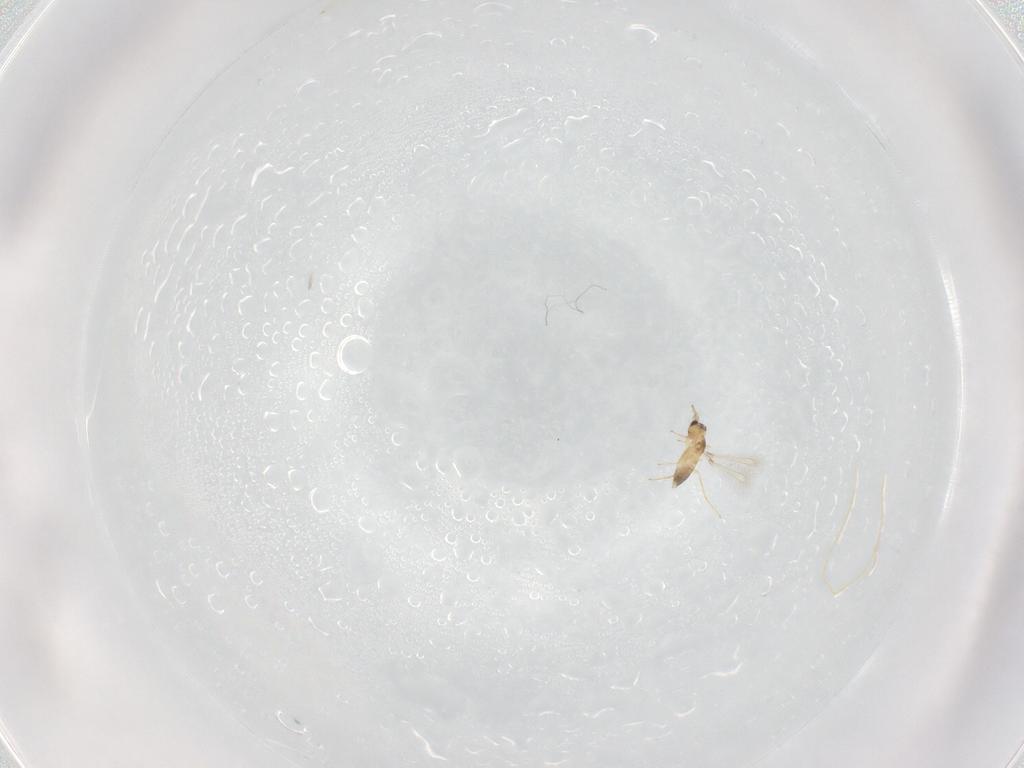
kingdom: Animalia
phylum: Arthropoda
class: Insecta
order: Hymenoptera
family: Mymaridae
